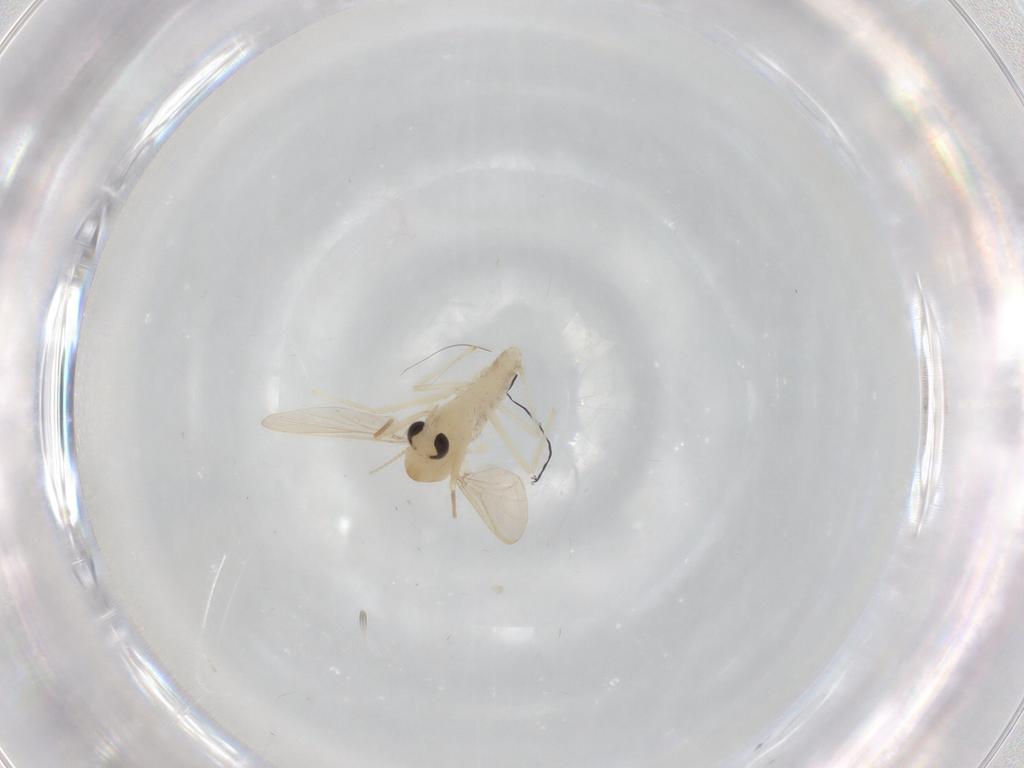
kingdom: Animalia
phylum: Arthropoda
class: Insecta
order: Diptera
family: Chironomidae
